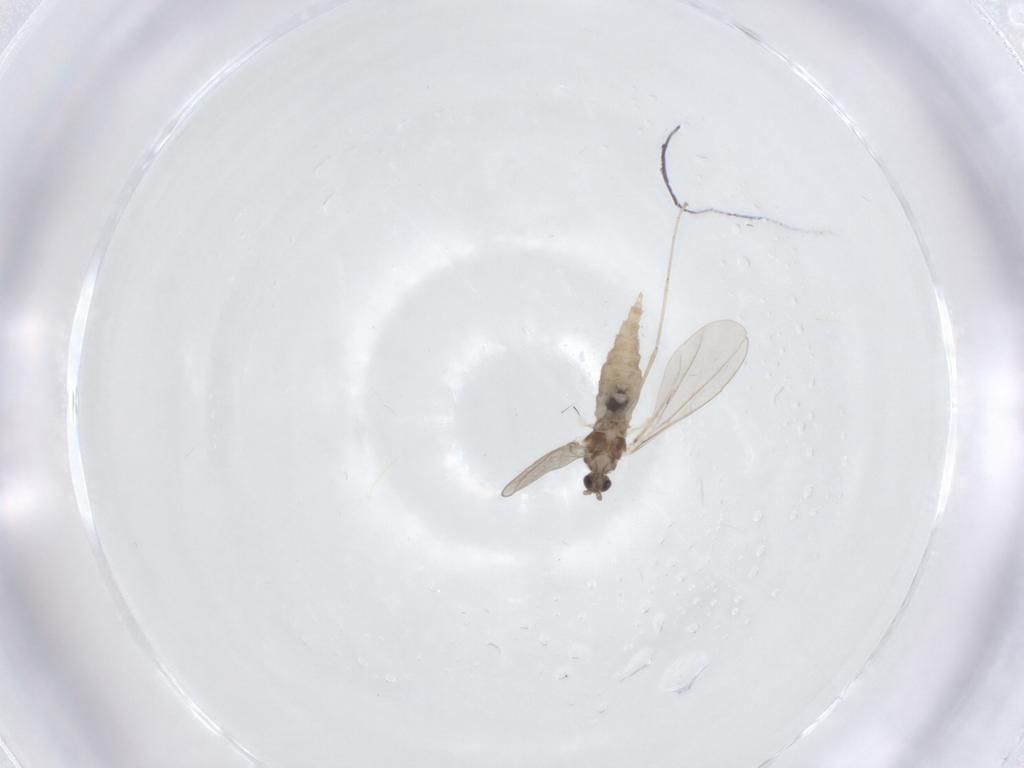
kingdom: Animalia
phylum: Arthropoda
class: Insecta
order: Diptera
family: Cecidomyiidae
